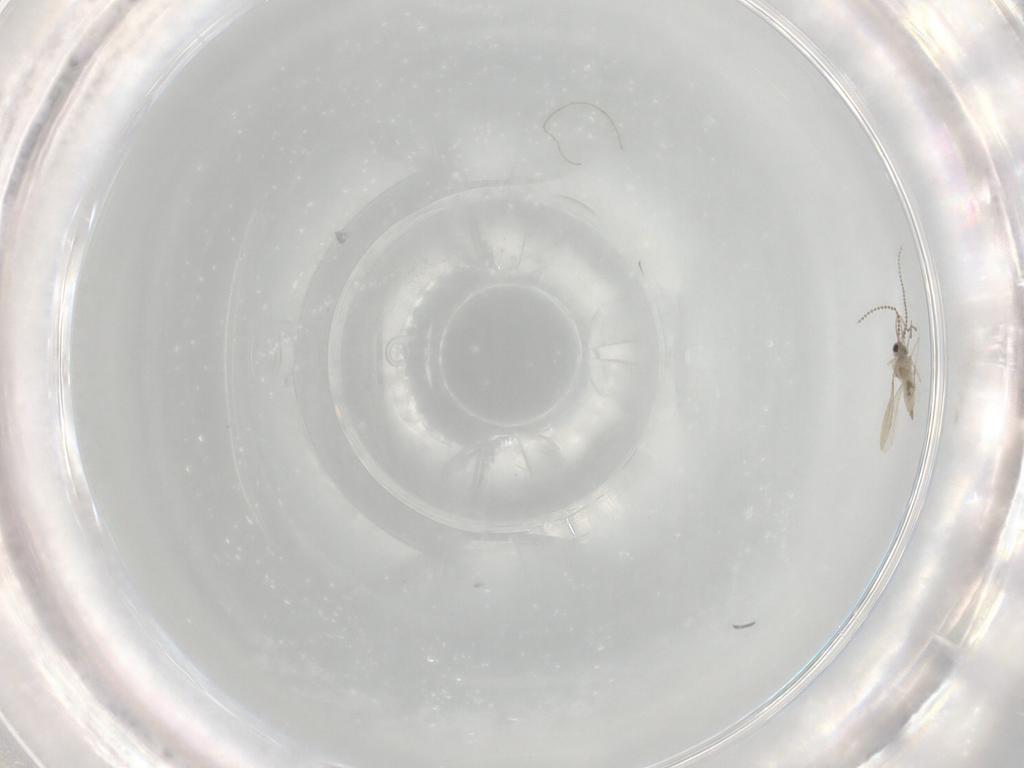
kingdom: Animalia
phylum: Arthropoda
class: Insecta
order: Diptera
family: Cecidomyiidae
